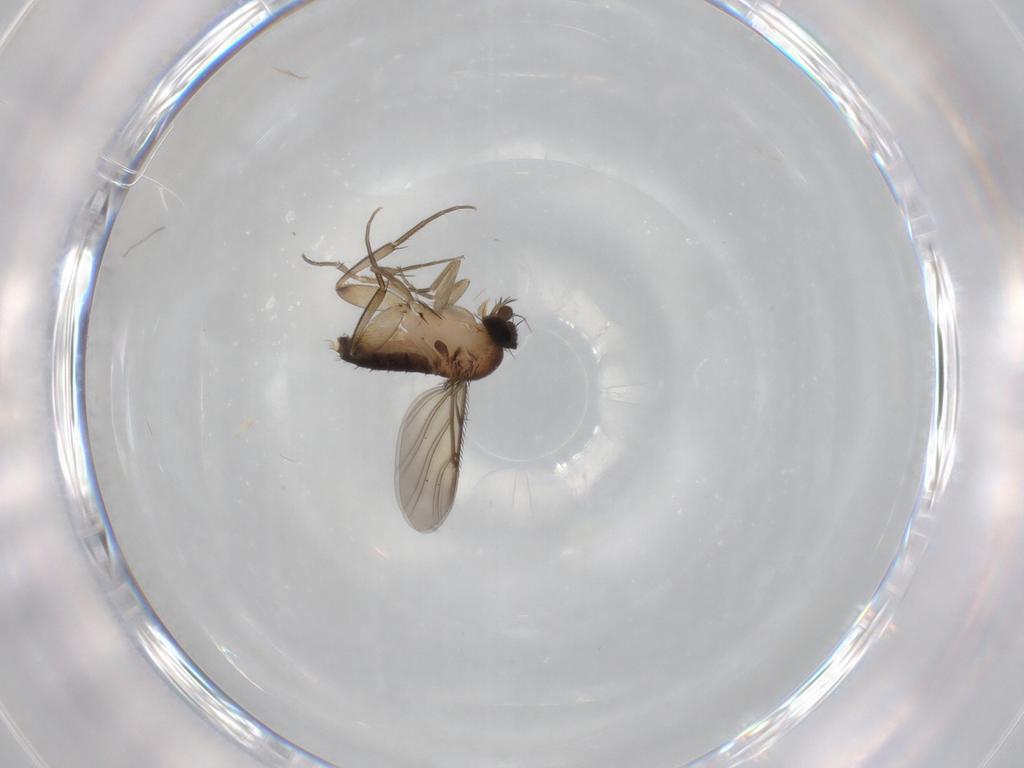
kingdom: Animalia
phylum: Arthropoda
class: Insecta
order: Diptera
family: Phoridae
